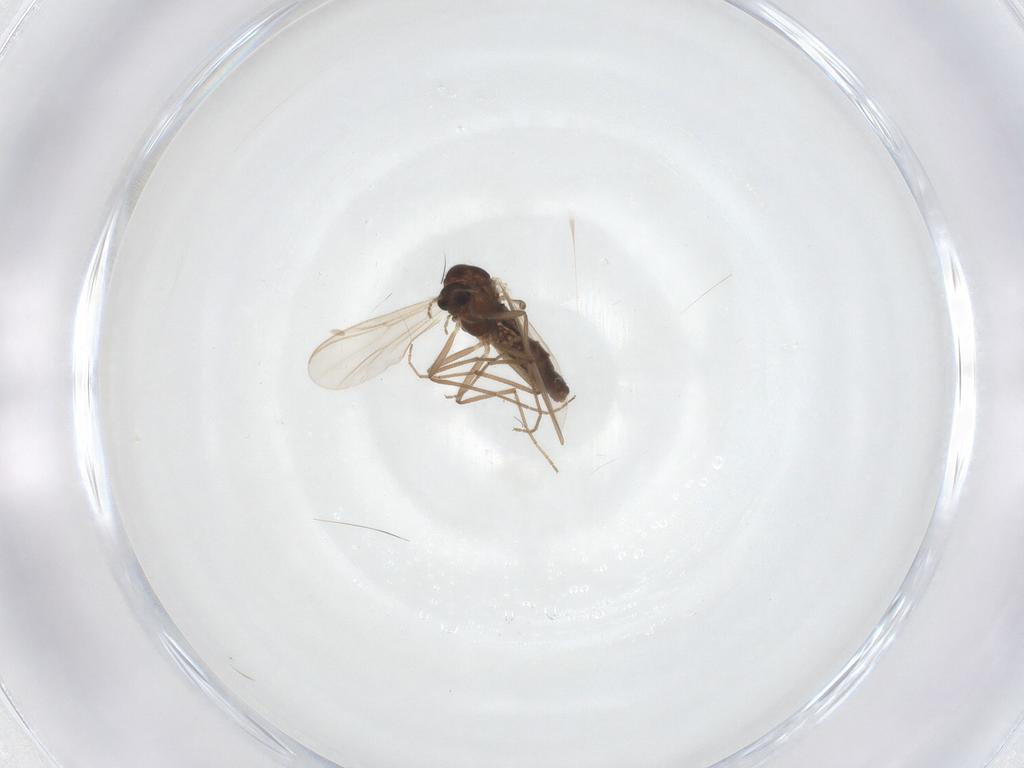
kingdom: Animalia
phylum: Arthropoda
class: Insecta
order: Diptera
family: Chironomidae
